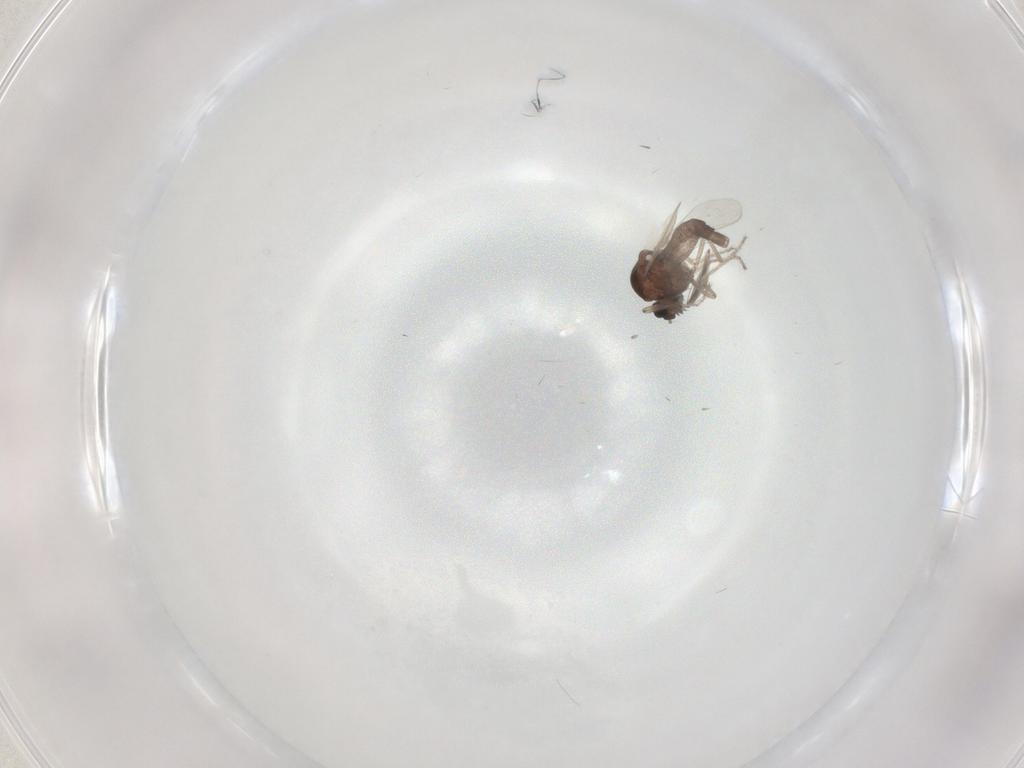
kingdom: Animalia
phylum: Arthropoda
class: Insecta
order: Diptera
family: Ceratopogonidae
